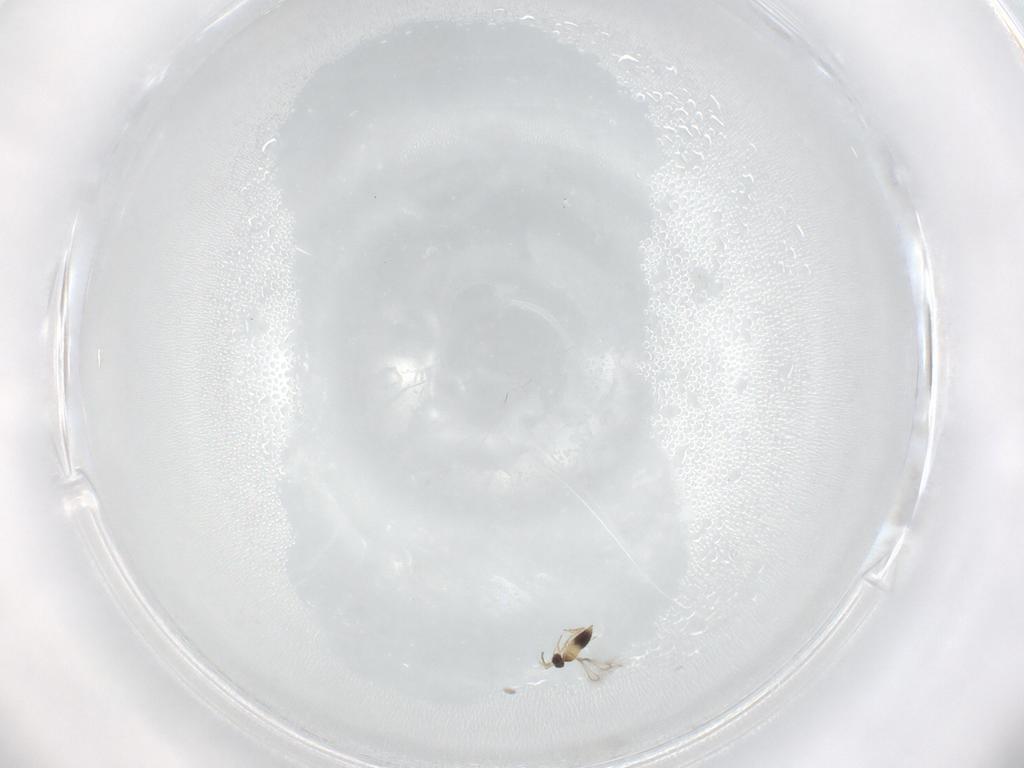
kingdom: Animalia
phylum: Arthropoda
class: Insecta
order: Hymenoptera
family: Mymaridae
